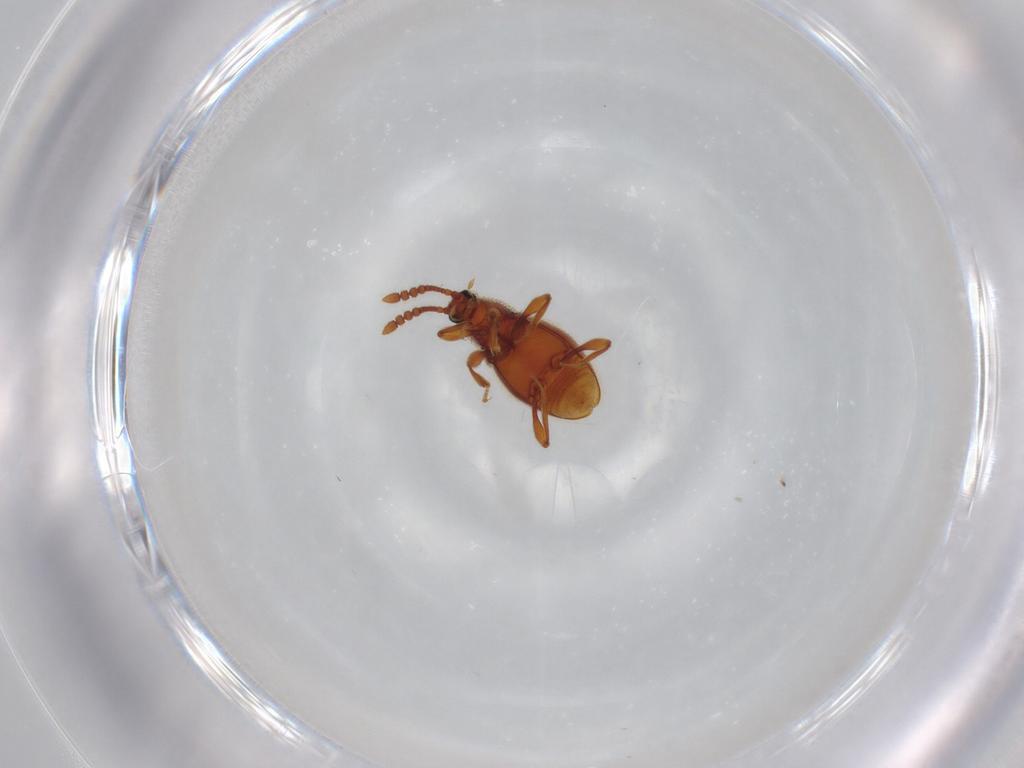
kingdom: Animalia
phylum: Arthropoda
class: Insecta
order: Coleoptera
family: Staphylinidae
